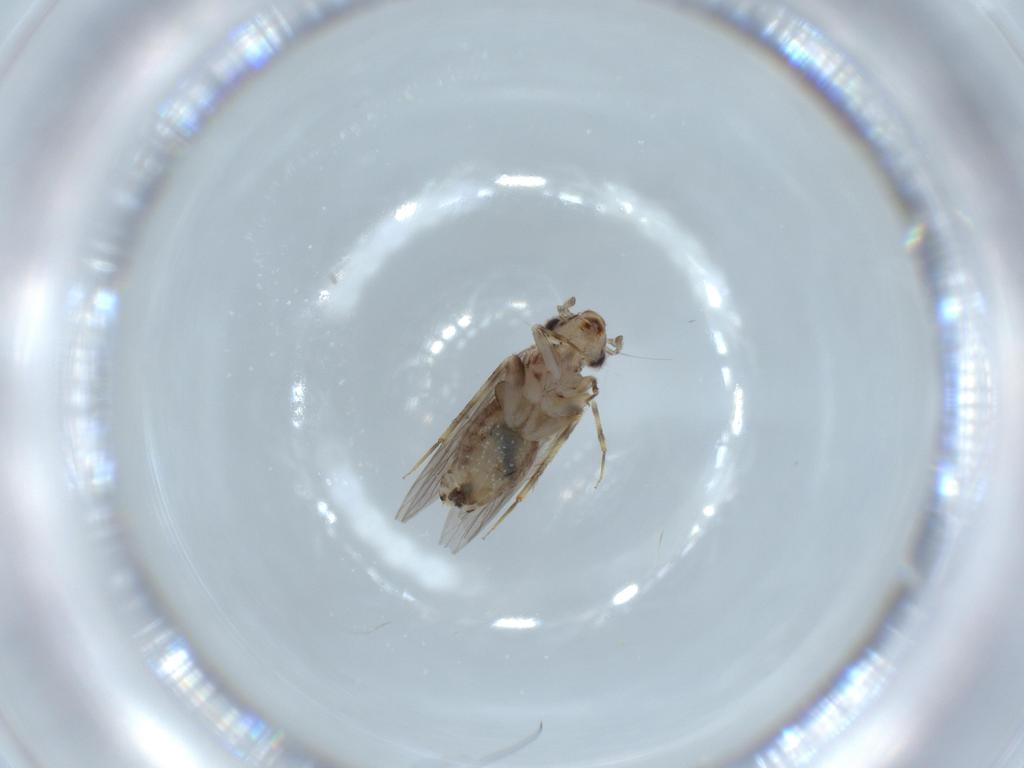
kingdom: Animalia
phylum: Arthropoda
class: Insecta
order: Psocodea
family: Lepidopsocidae
